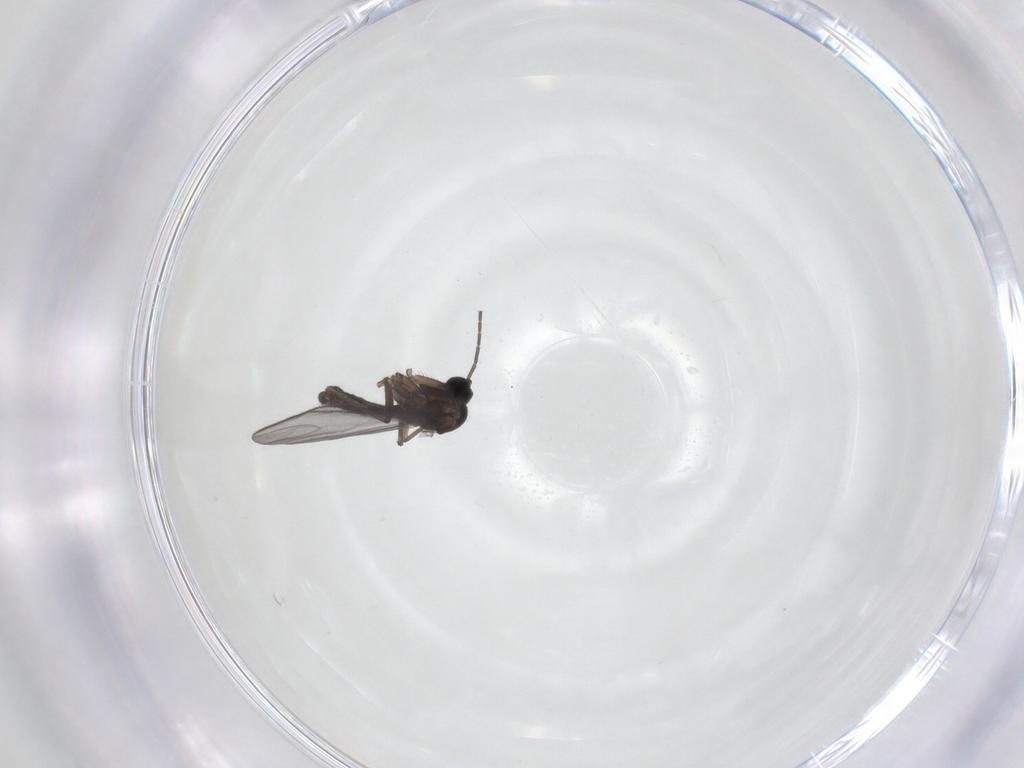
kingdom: Animalia
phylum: Arthropoda
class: Insecta
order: Diptera
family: Sciaridae
